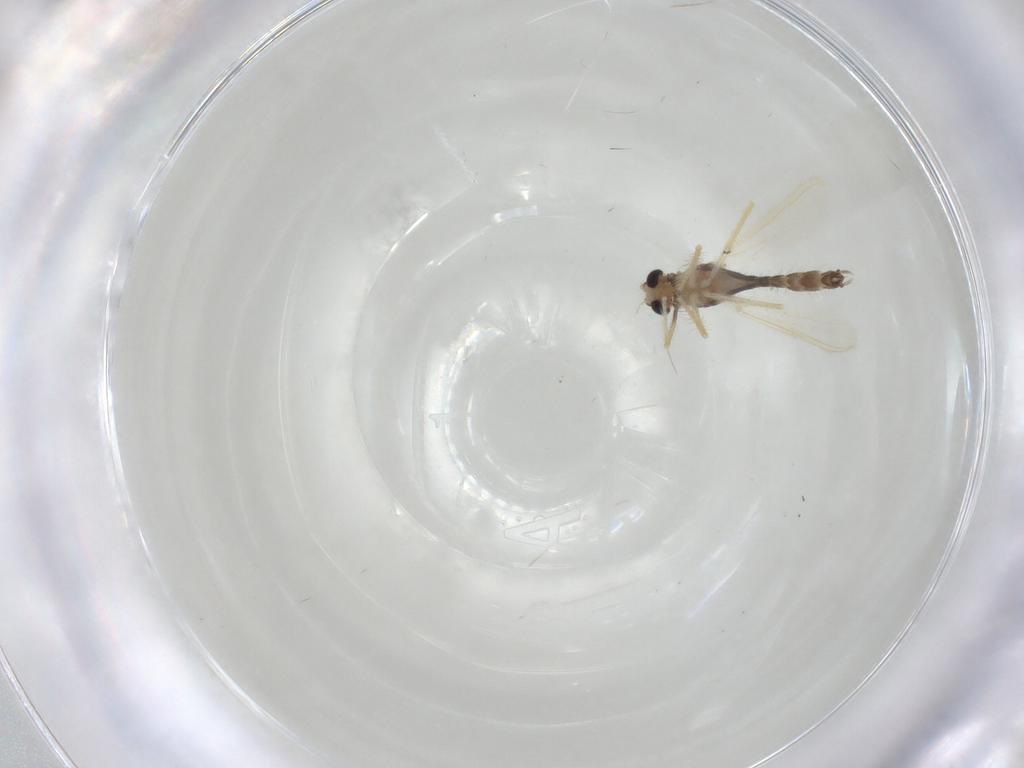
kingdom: Animalia
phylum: Arthropoda
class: Insecta
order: Diptera
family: Chironomidae
